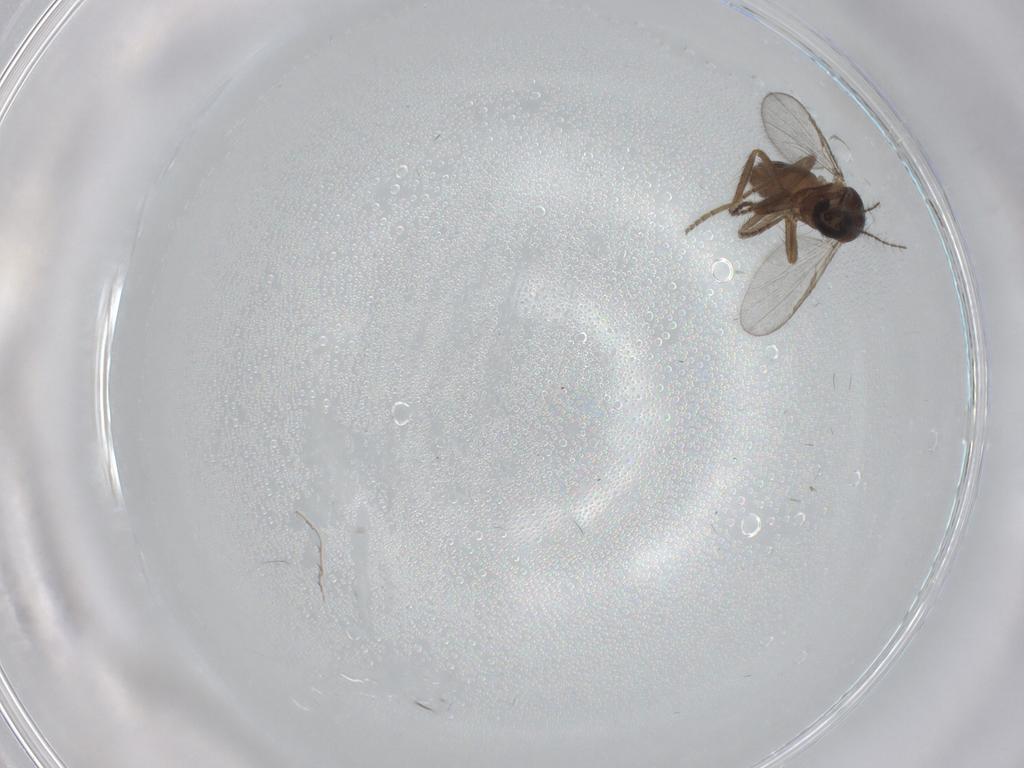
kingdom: Animalia
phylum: Arthropoda
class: Insecta
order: Diptera
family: Ceratopogonidae
